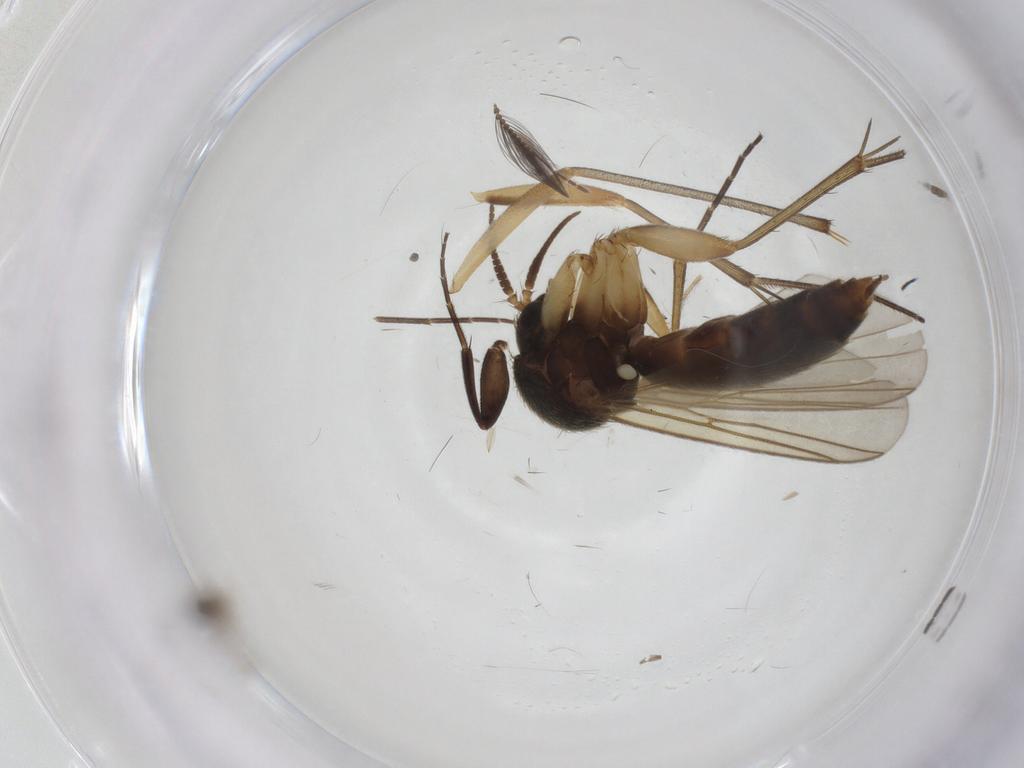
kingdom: Animalia
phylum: Arthropoda
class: Insecta
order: Diptera
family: Cecidomyiidae
